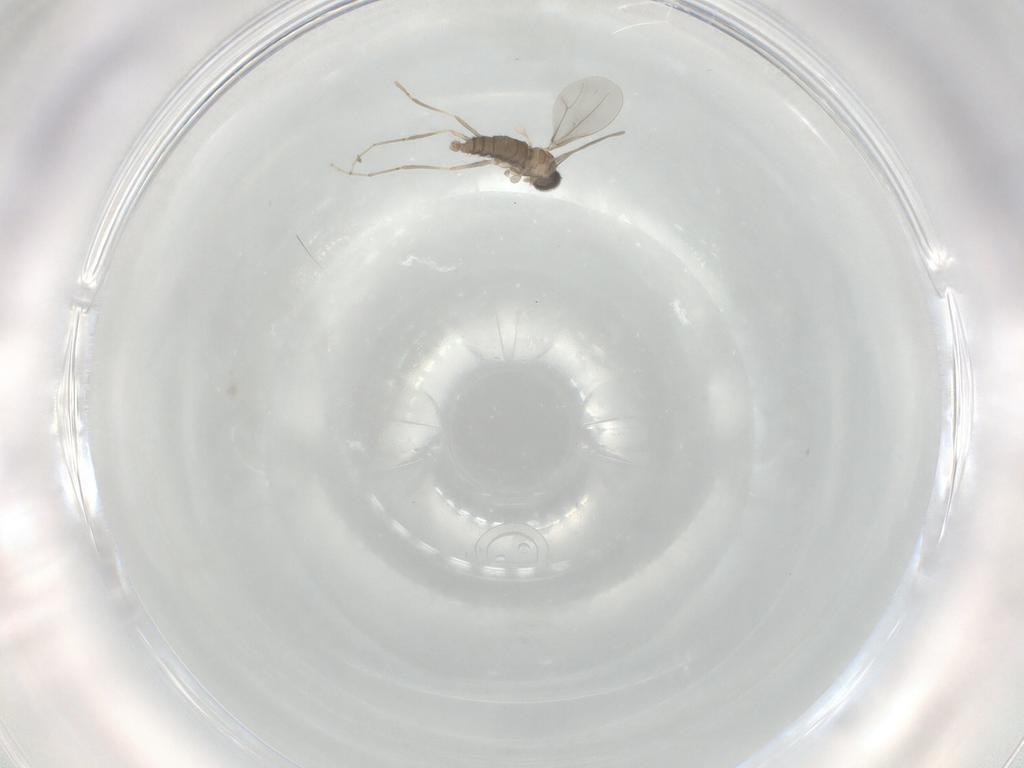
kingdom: Animalia
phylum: Arthropoda
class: Insecta
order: Diptera
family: Cecidomyiidae
